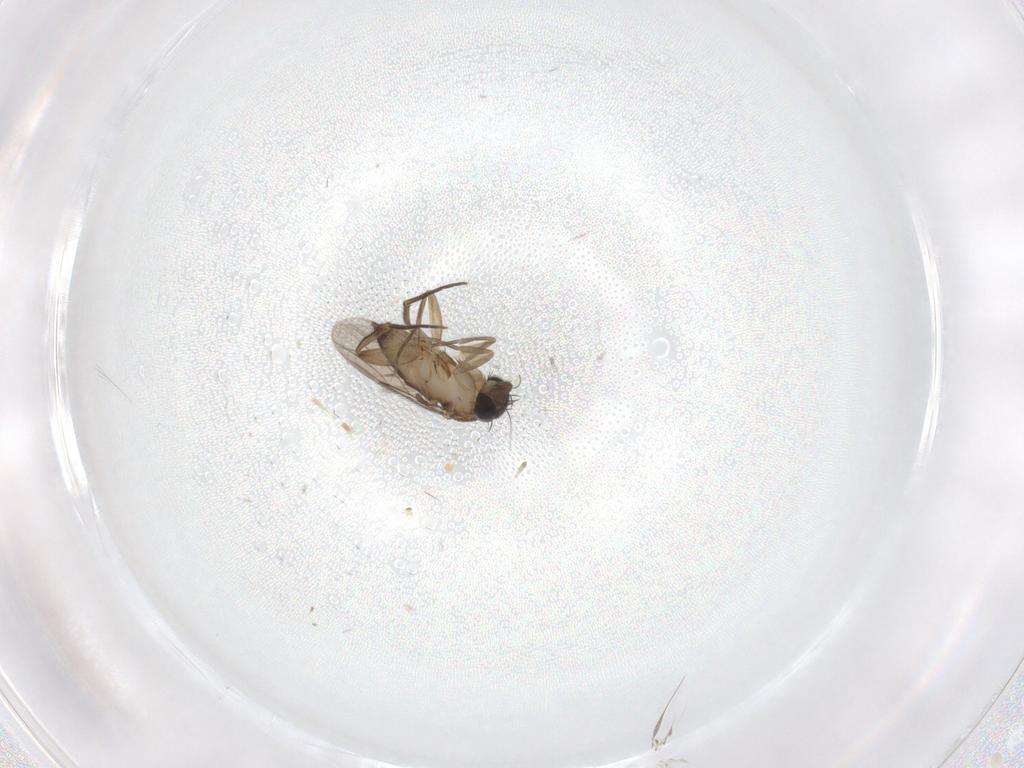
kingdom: Animalia
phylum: Arthropoda
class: Insecta
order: Diptera
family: Phoridae
